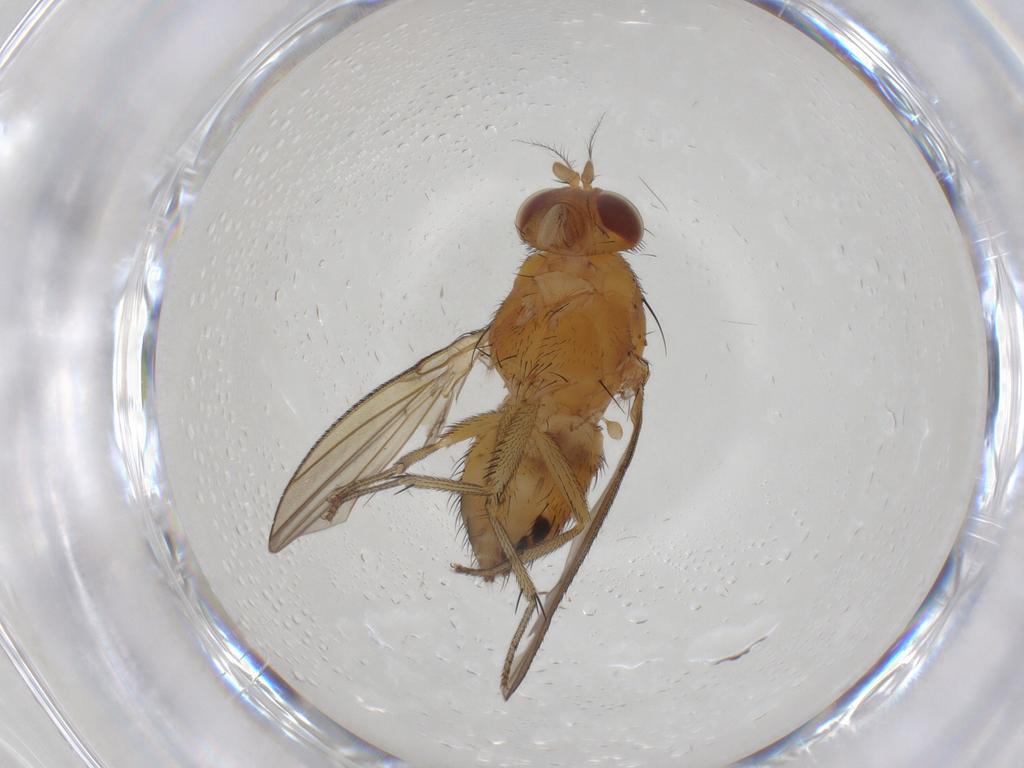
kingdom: Animalia
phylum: Arthropoda
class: Insecta
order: Diptera
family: Lauxaniidae
